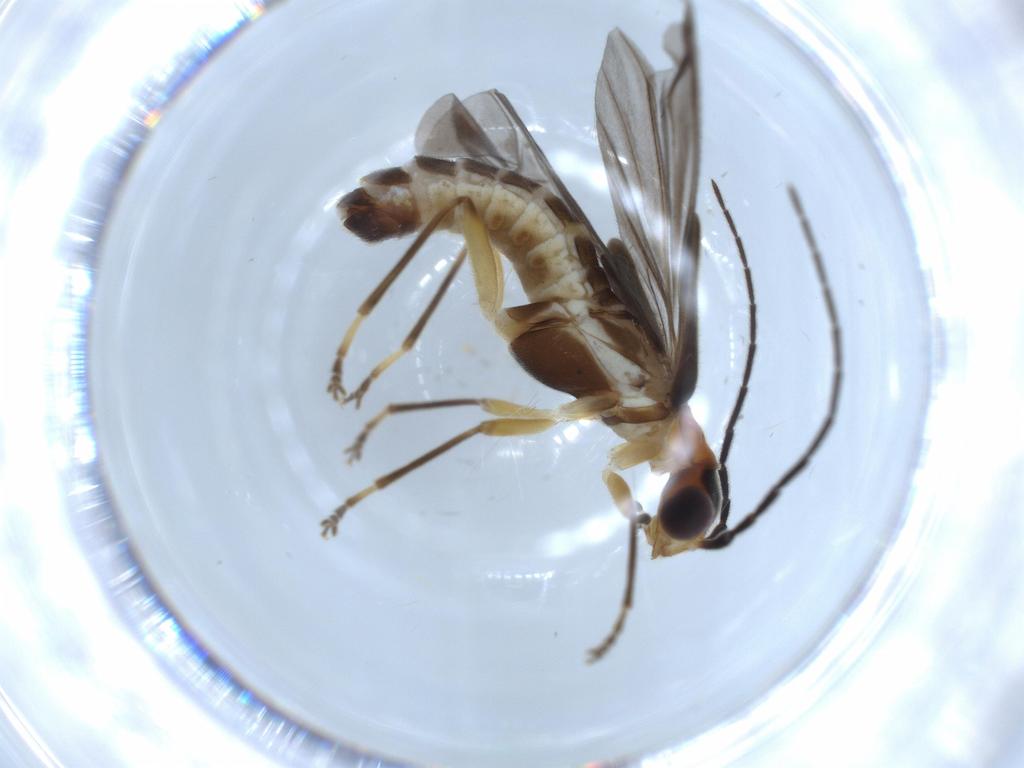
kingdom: Animalia
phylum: Arthropoda
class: Insecta
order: Coleoptera
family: Cantharidae
